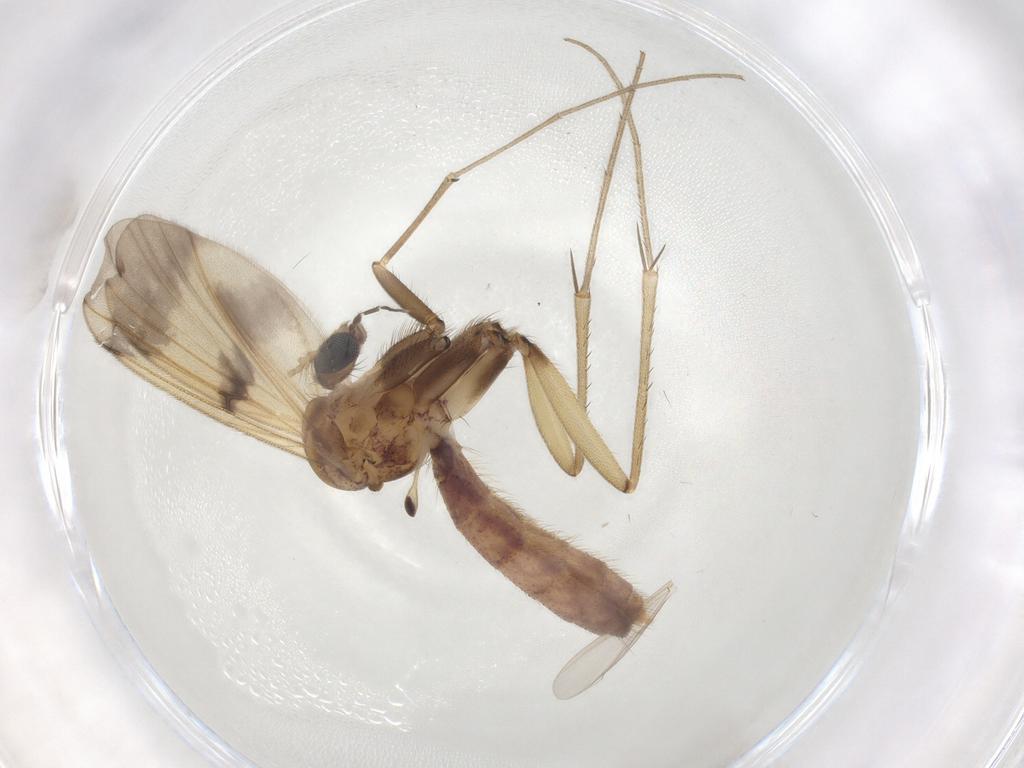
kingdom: Animalia
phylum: Arthropoda
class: Insecta
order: Diptera
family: Mycetophilidae
